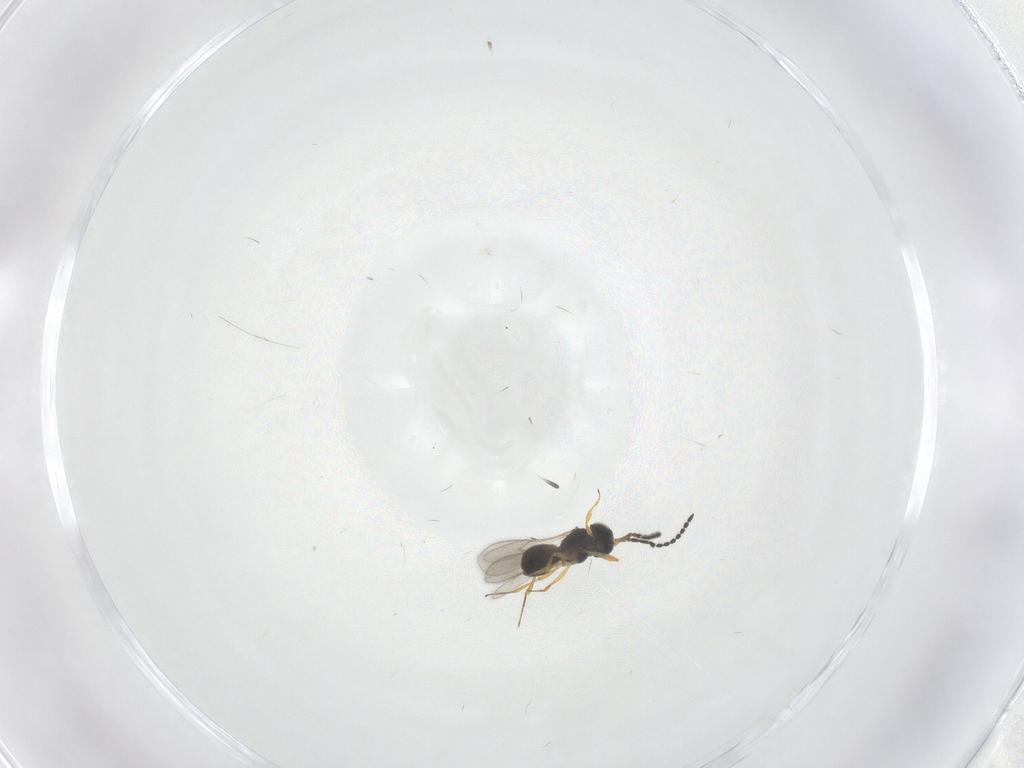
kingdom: Animalia
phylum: Arthropoda
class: Insecta
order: Hymenoptera
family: Scelionidae
